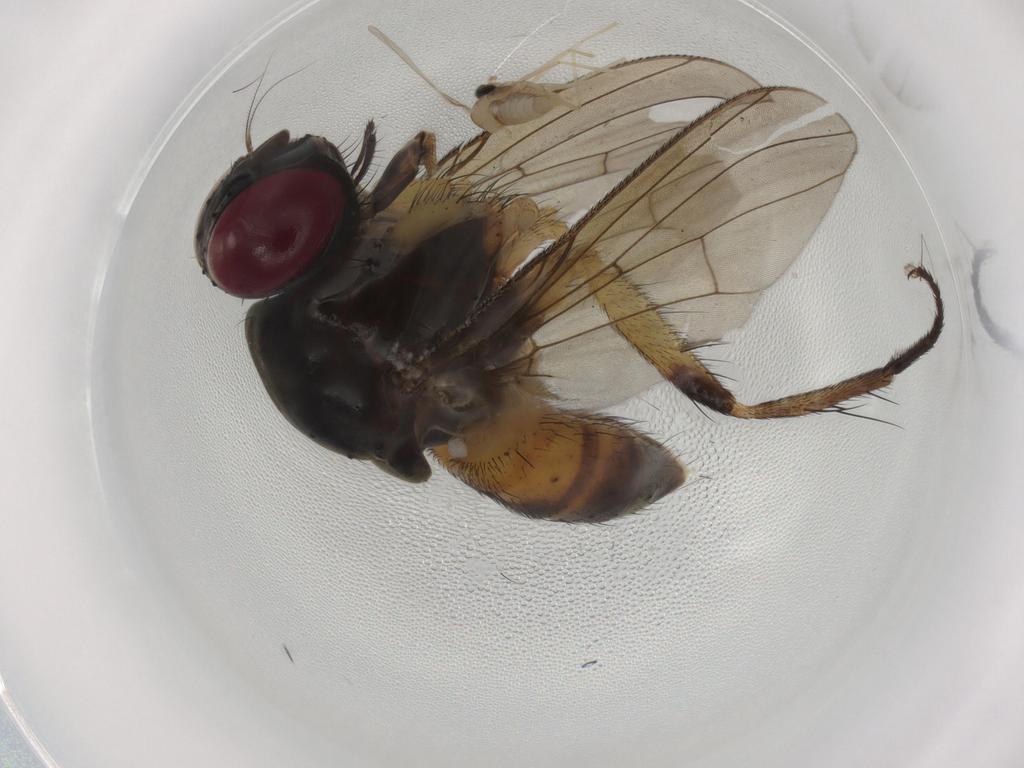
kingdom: Animalia
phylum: Arthropoda
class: Insecta
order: Diptera
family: Muscidae
